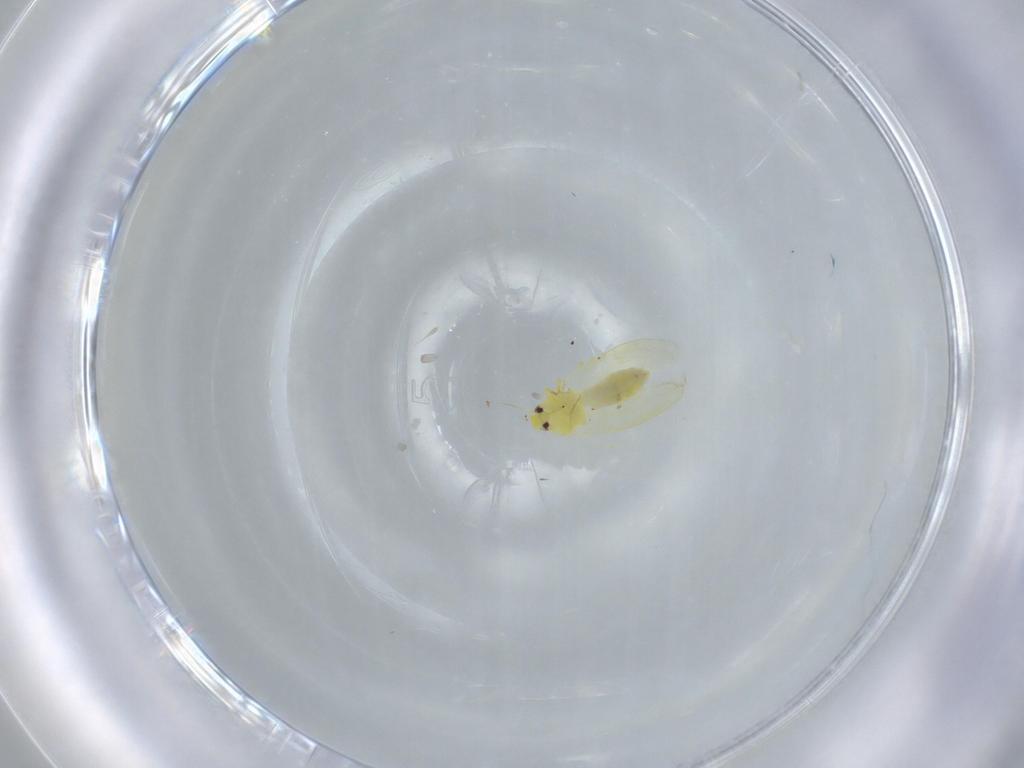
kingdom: Animalia
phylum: Arthropoda
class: Insecta
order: Hemiptera
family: Aleyrodidae
